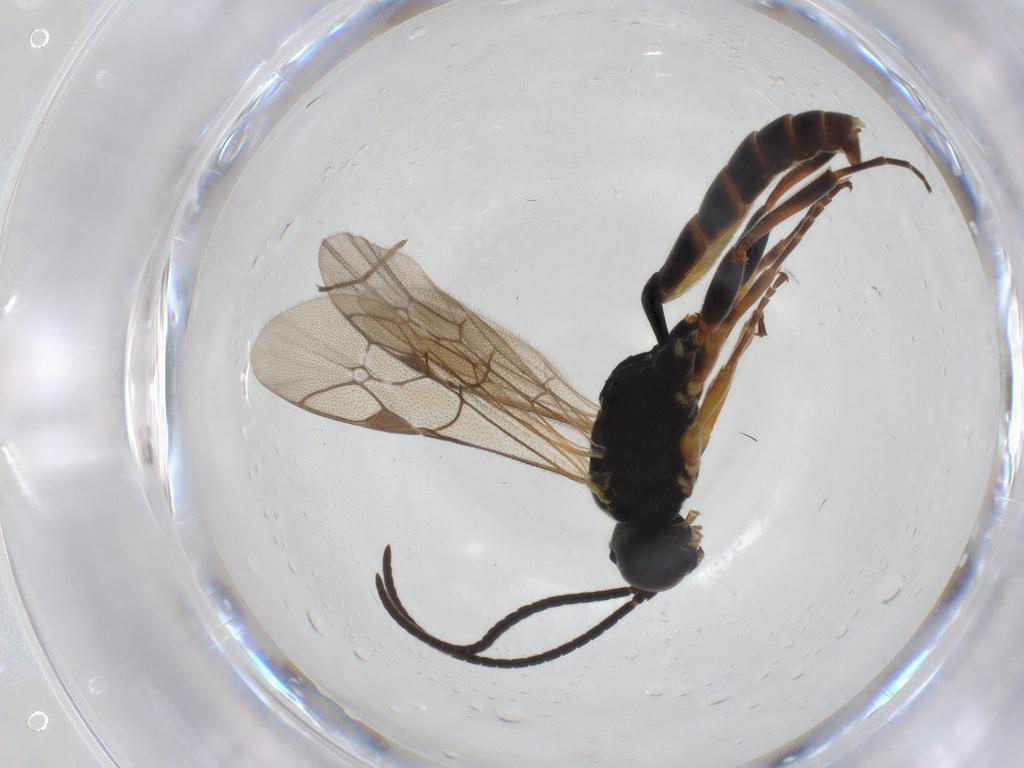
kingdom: Animalia
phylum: Arthropoda
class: Insecta
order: Hymenoptera
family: Ichneumonidae
